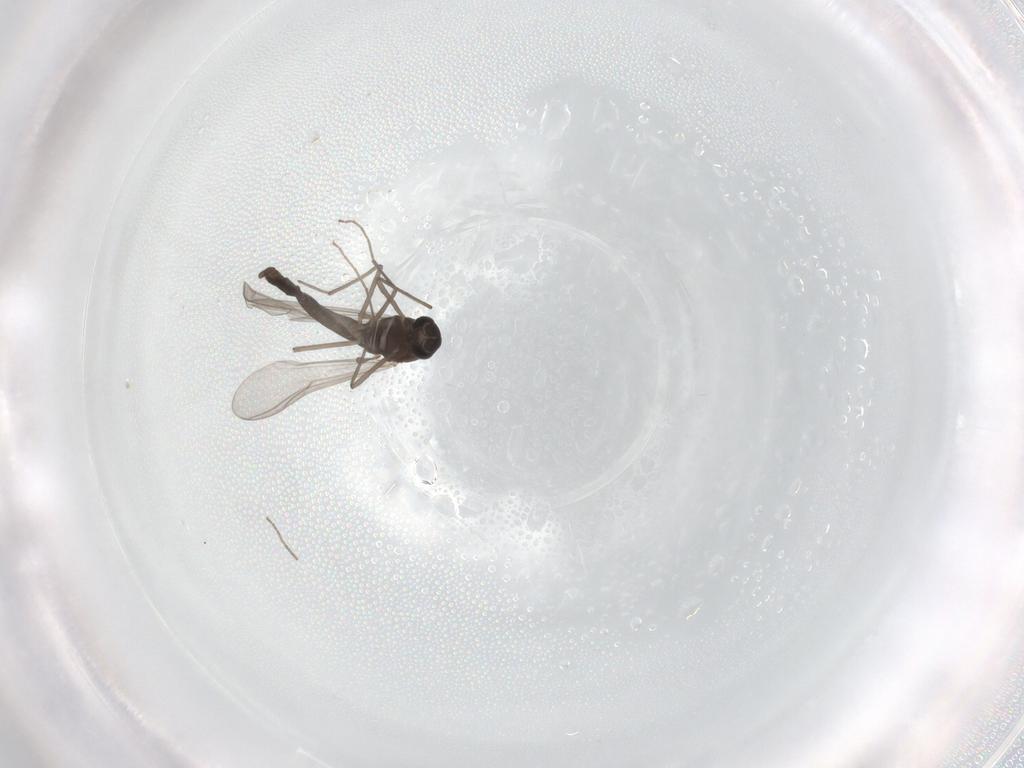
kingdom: Animalia
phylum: Arthropoda
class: Insecta
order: Diptera
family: Chironomidae
